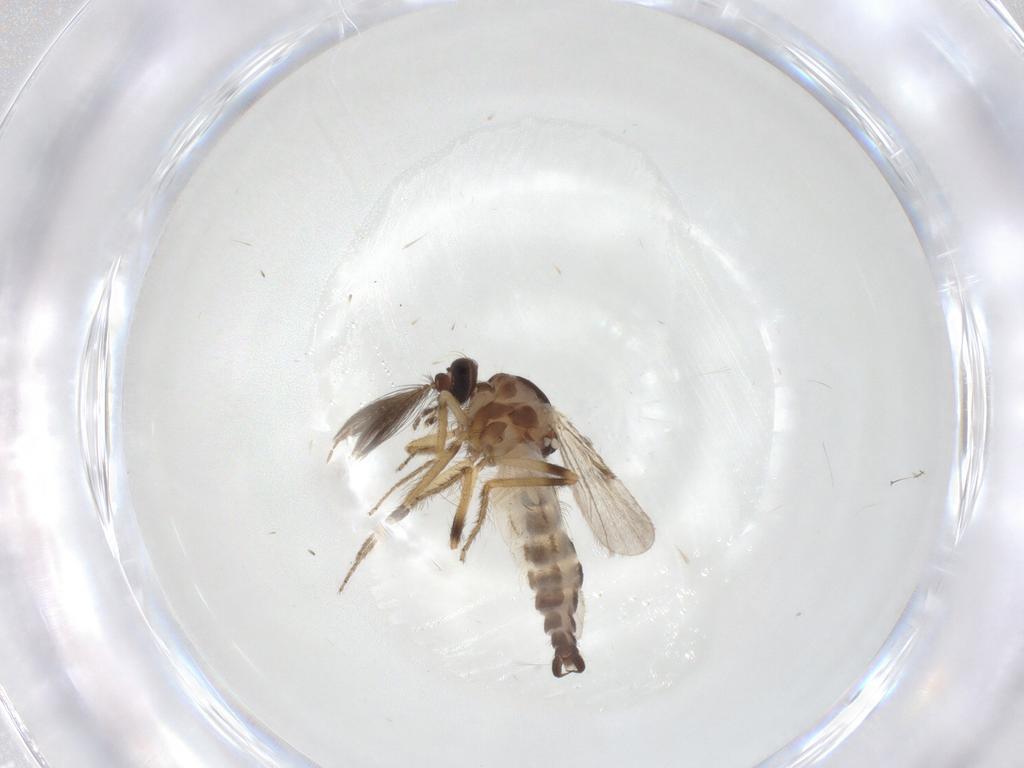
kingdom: Animalia
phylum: Arthropoda
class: Insecta
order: Diptera
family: Ceratopogonidae
